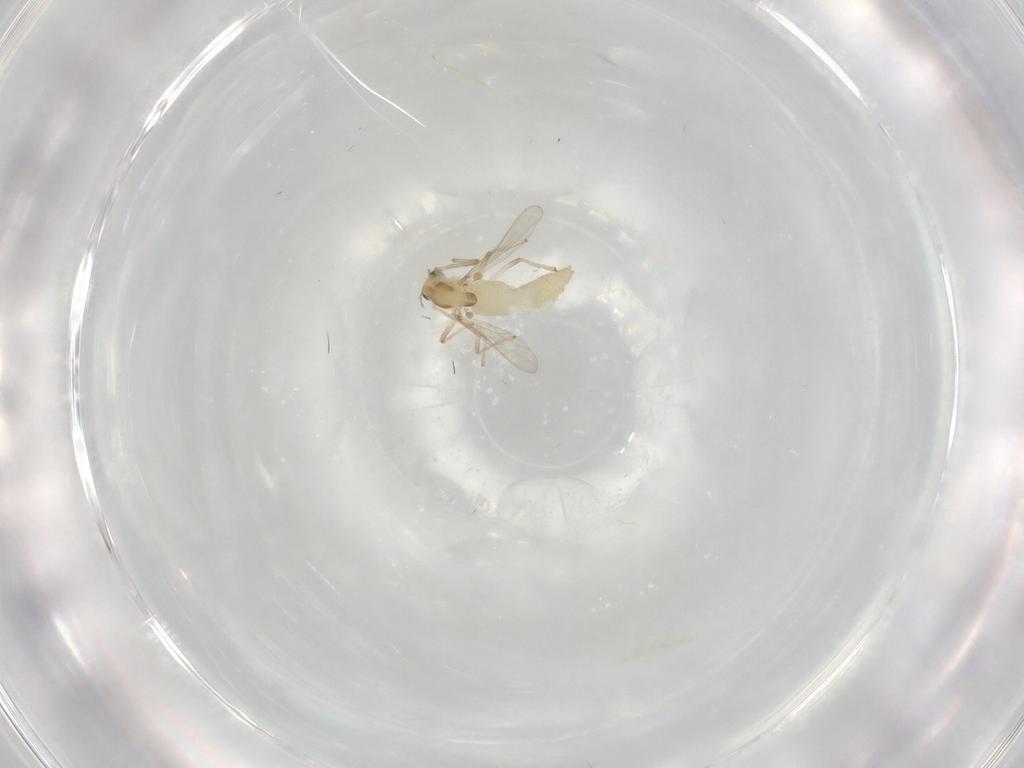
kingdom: Animalia
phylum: Arthropoda
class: Insecta
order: Diptera
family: Chironomidae
